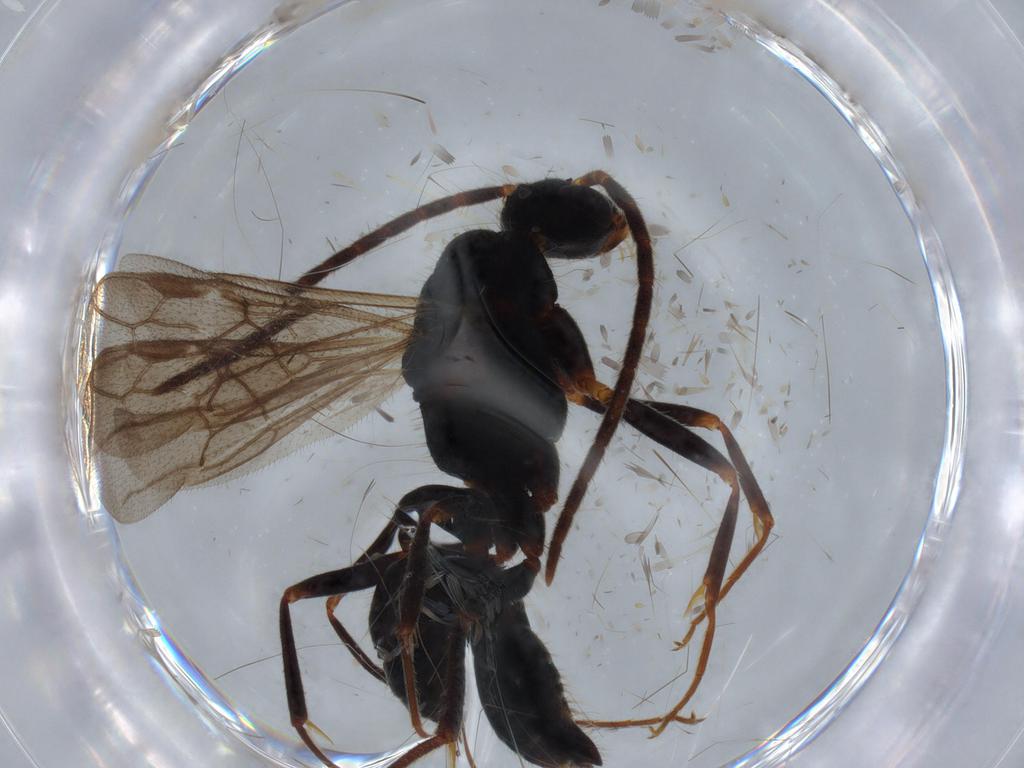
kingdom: Animalia
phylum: Arthropoda
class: Insecta
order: Hymenoptera
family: Formicidae
